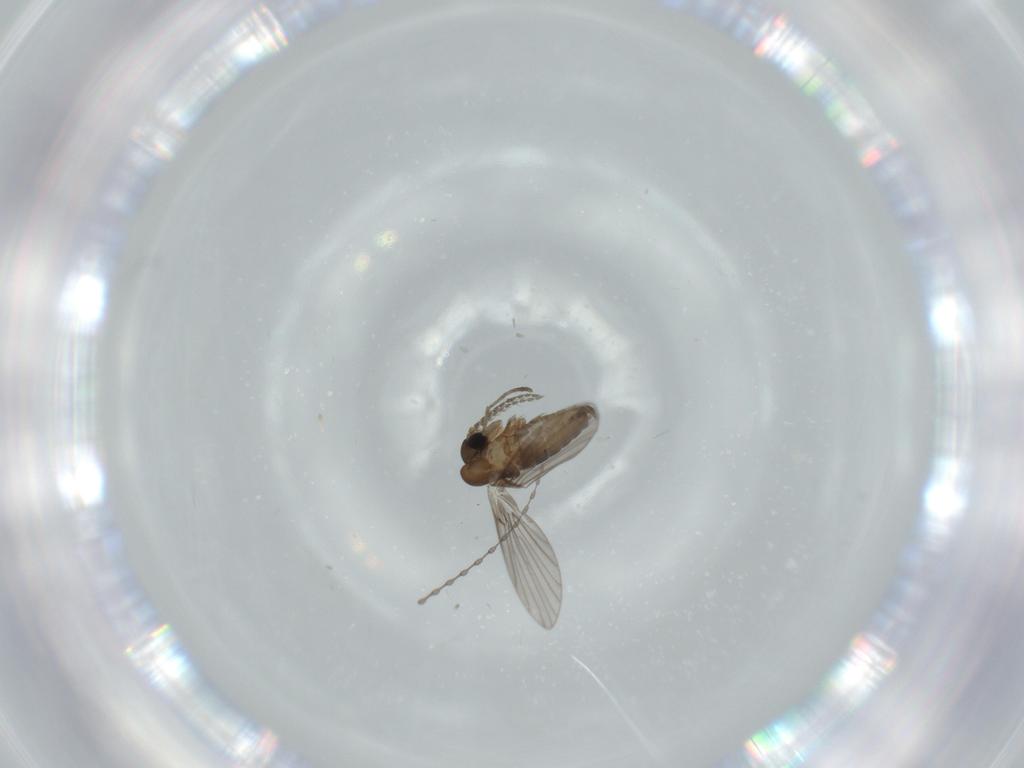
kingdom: Animalia
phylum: Arthropoda
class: Insecta
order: Diptera
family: Cecidomyiidae
